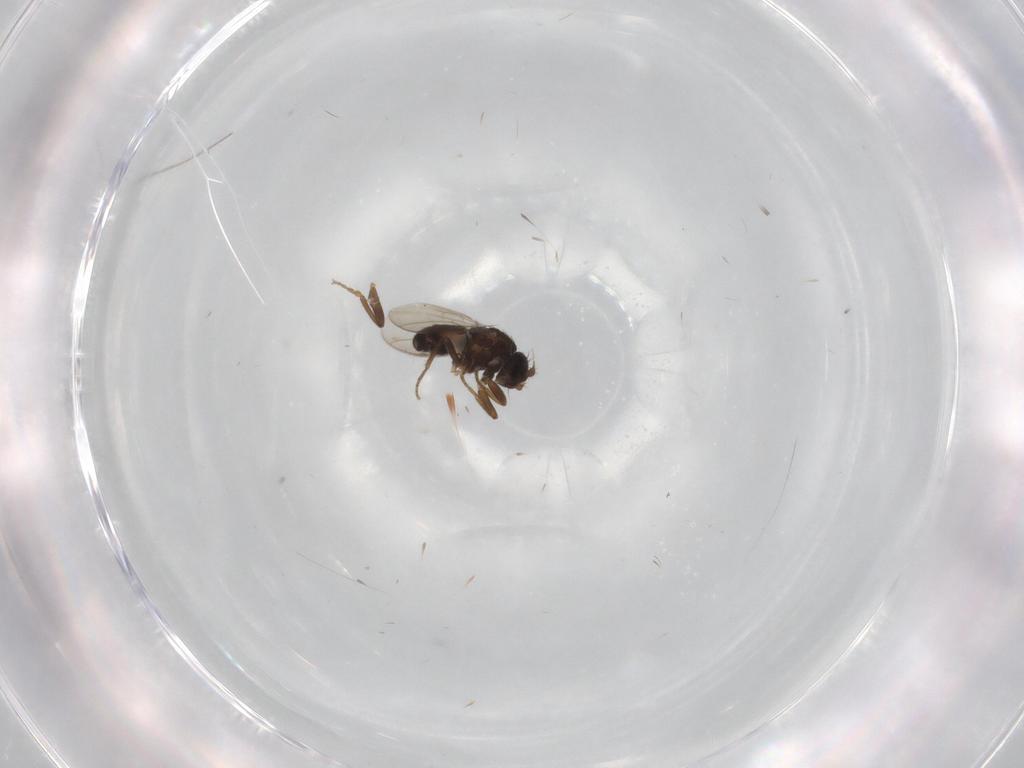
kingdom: Animalia
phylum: Arthropoda
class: Insecta
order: Diptera
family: Sphaeroceridae
